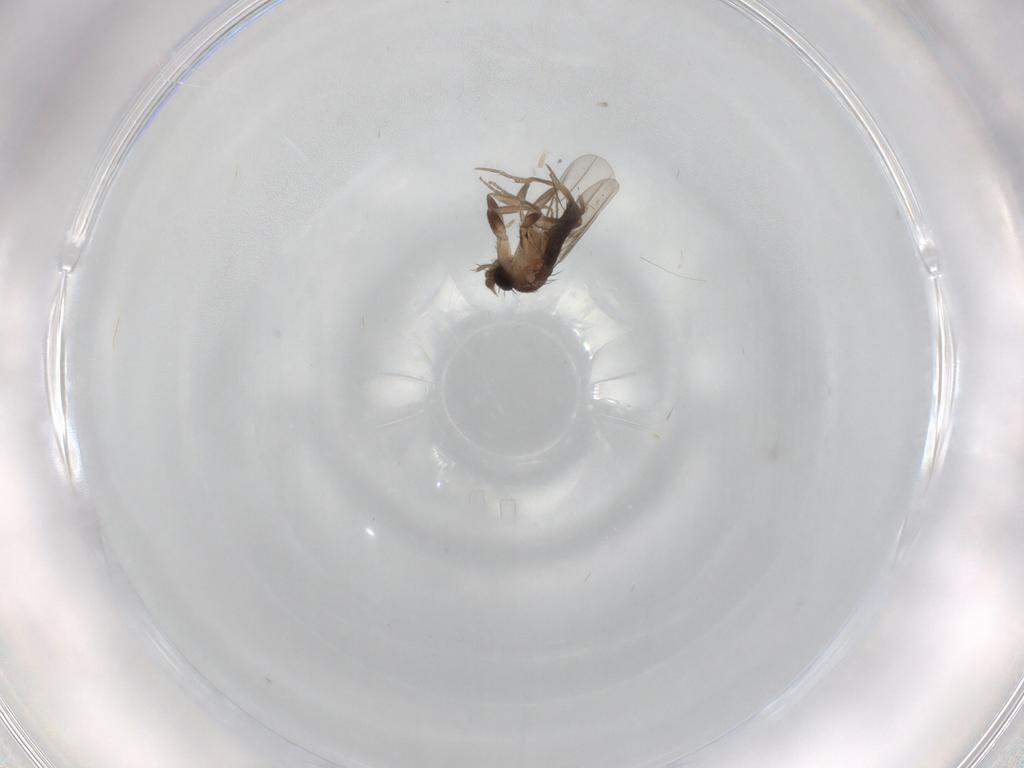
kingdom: Animalia
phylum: Arthropoda
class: Insecta
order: Diptera
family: Phoridae
